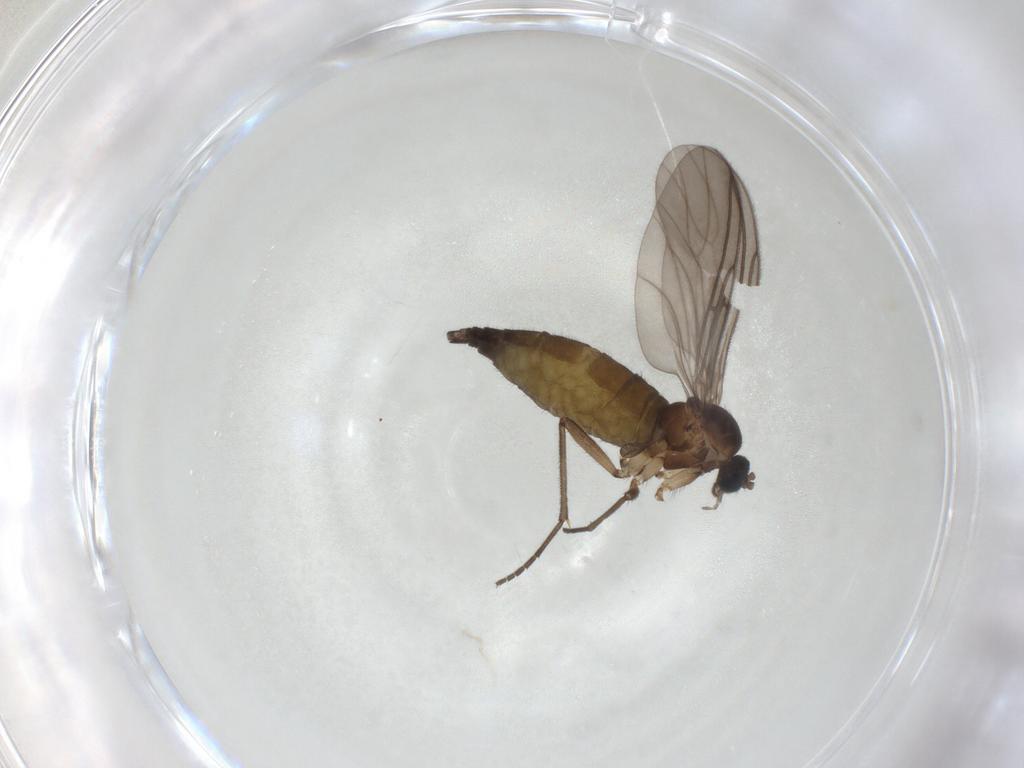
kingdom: Animalia
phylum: Arthropoda
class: Insecta
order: Diptera
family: Sciaridae
